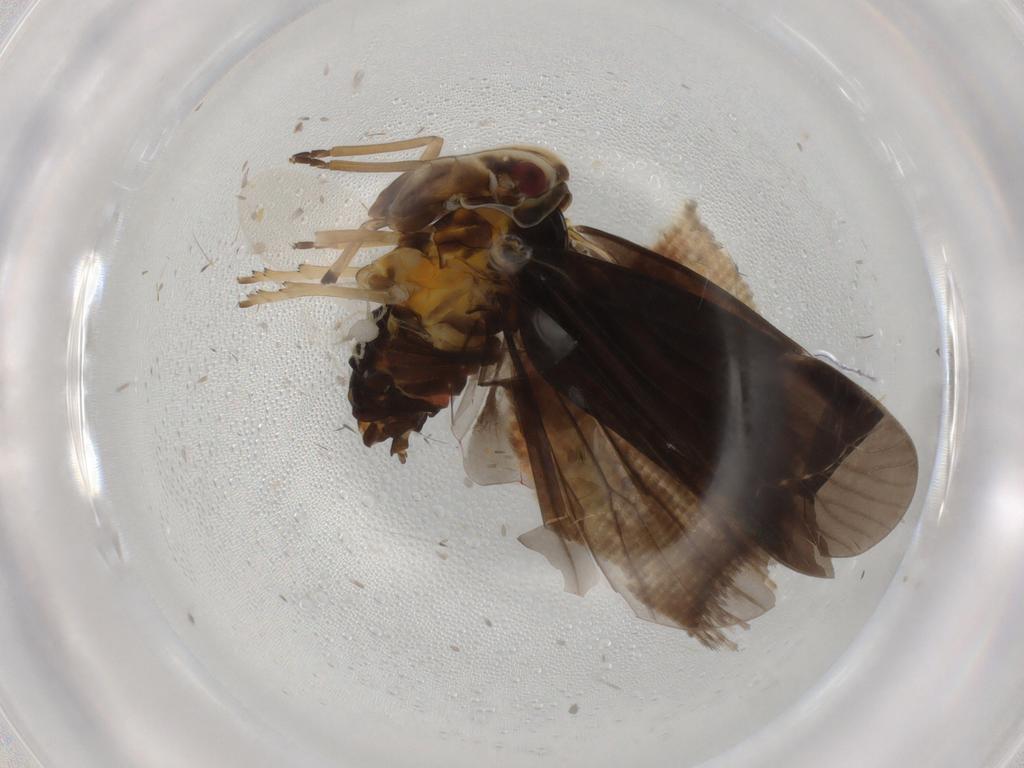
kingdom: Animalia
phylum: Arthropoda
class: Insecta
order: Hemiptera
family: Derbidae
